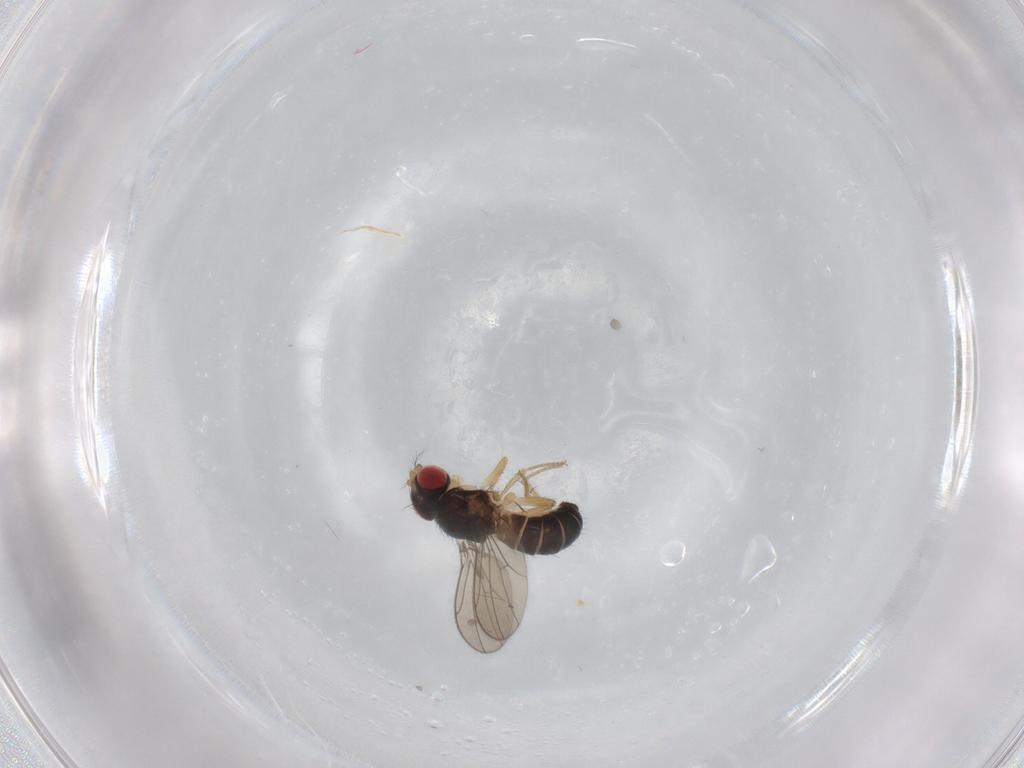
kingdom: Animalia
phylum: Arthropoda
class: Insecta
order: Diptera
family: Drosophilidae
